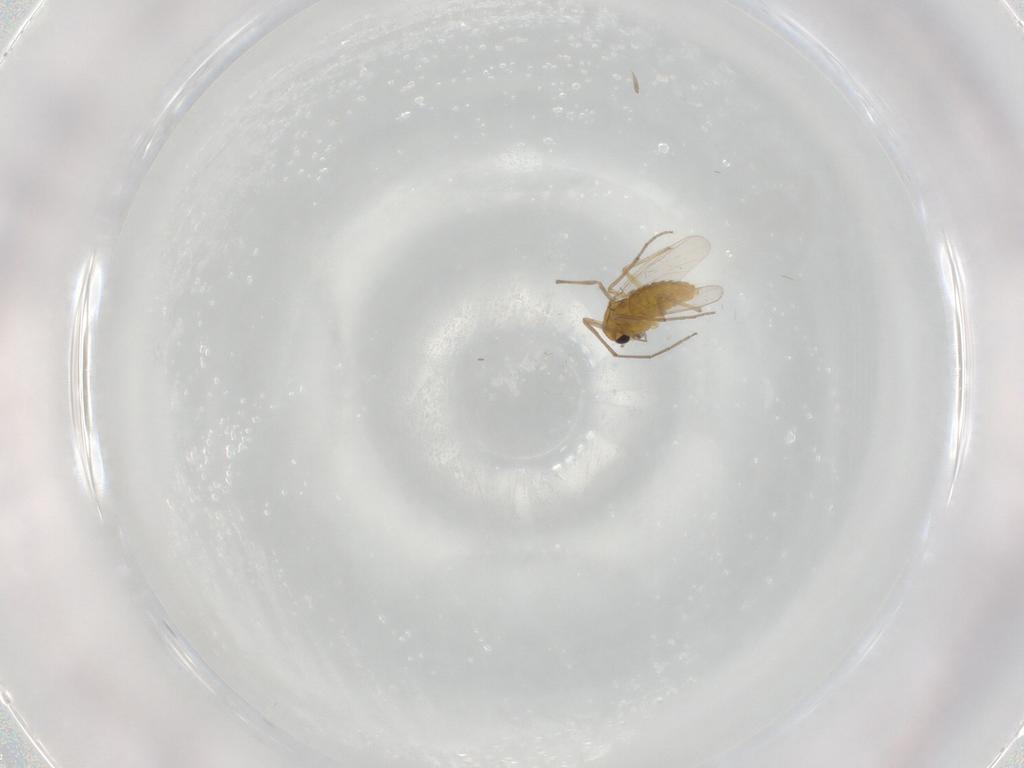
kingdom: Animalia
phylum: Arthropoda
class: Insecta
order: Diptera
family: Chironomidae
